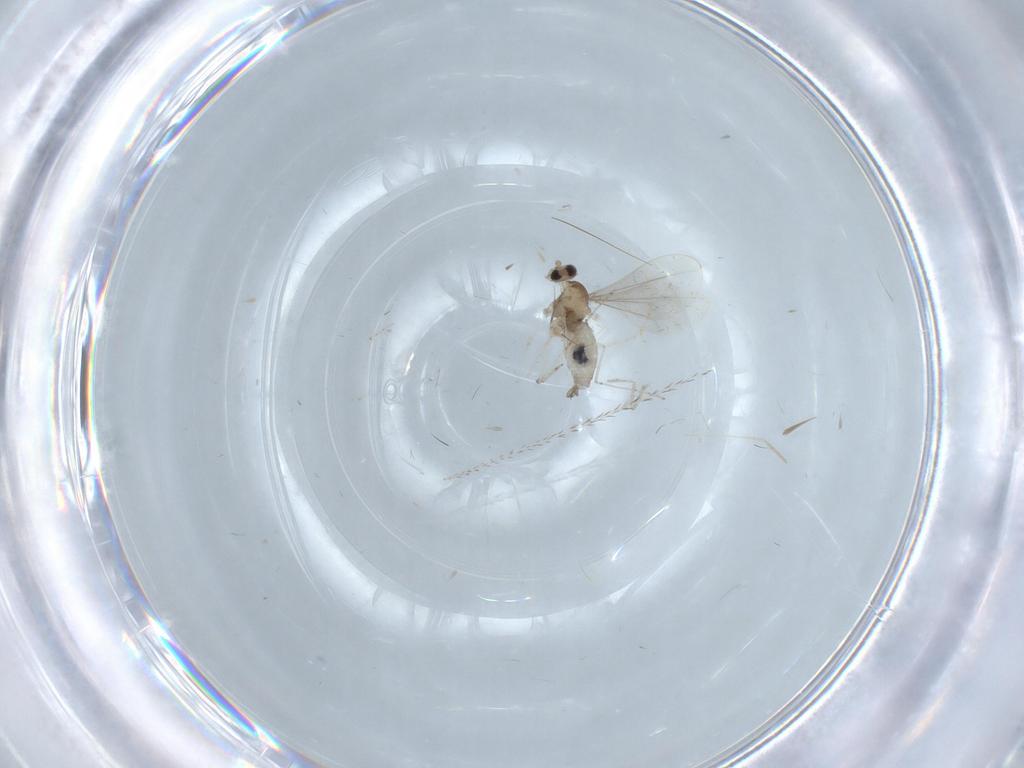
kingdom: Animalia
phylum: Arthropoda
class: Insecta
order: Diptera
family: Cecidomyiidae
